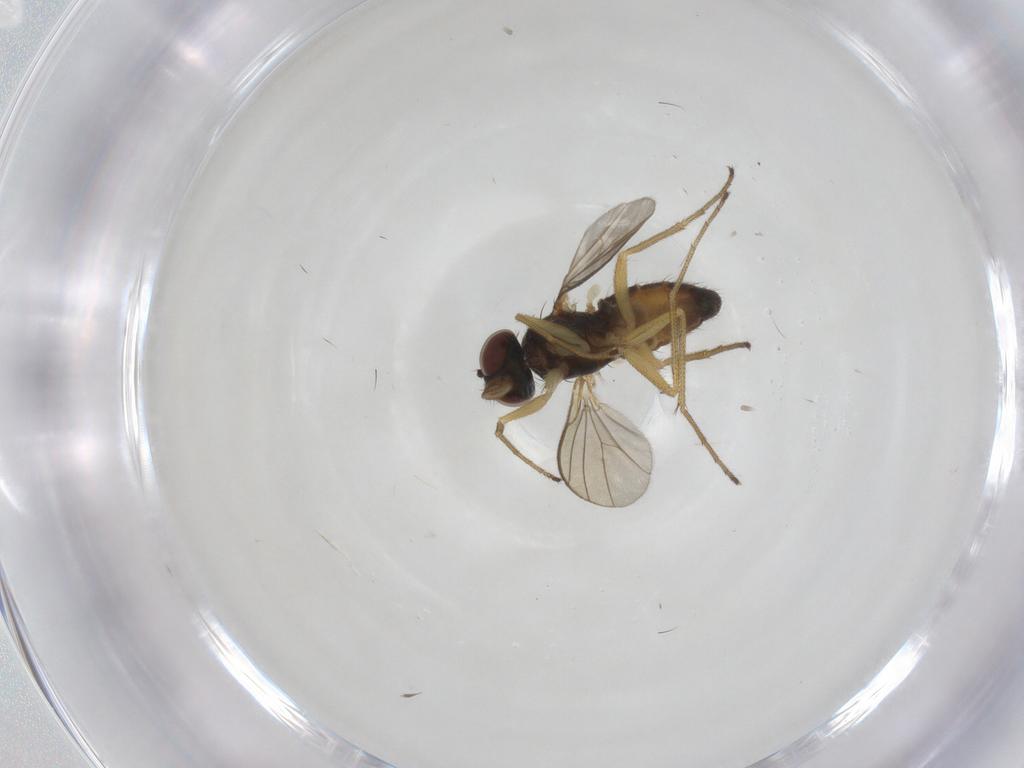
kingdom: Animalia
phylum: Arthropoda
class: Insecta
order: Diptera
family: Dolichopodidae
